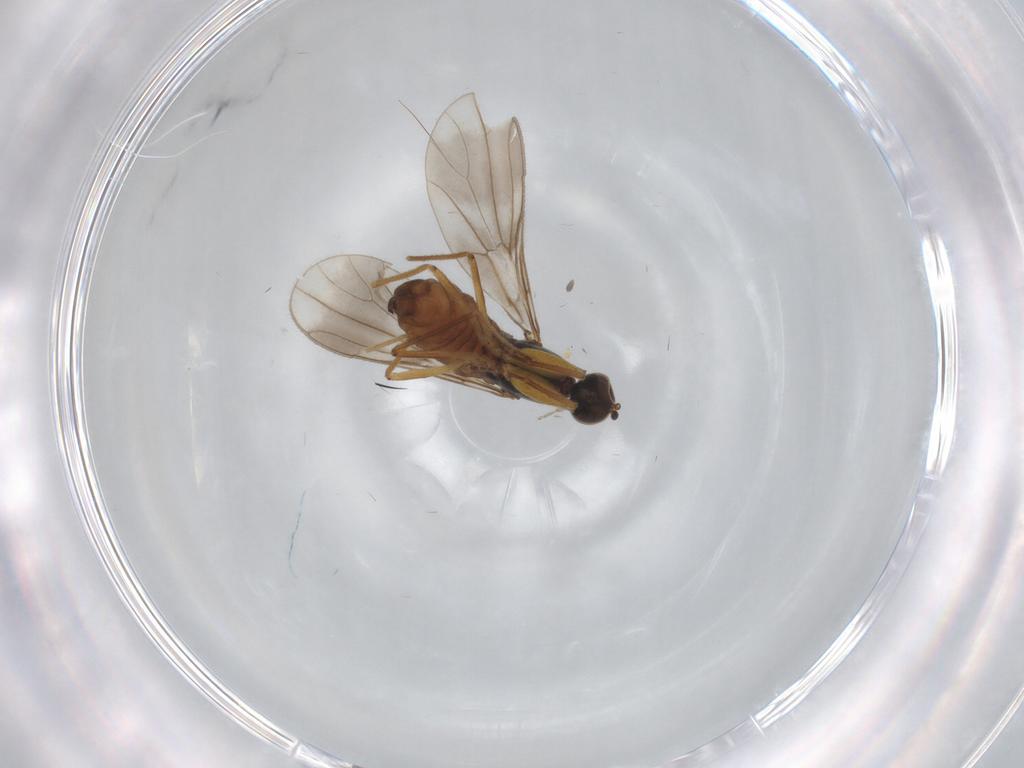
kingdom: Animalia
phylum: Arthropoda
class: Insecta
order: Diptera
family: Empididae
